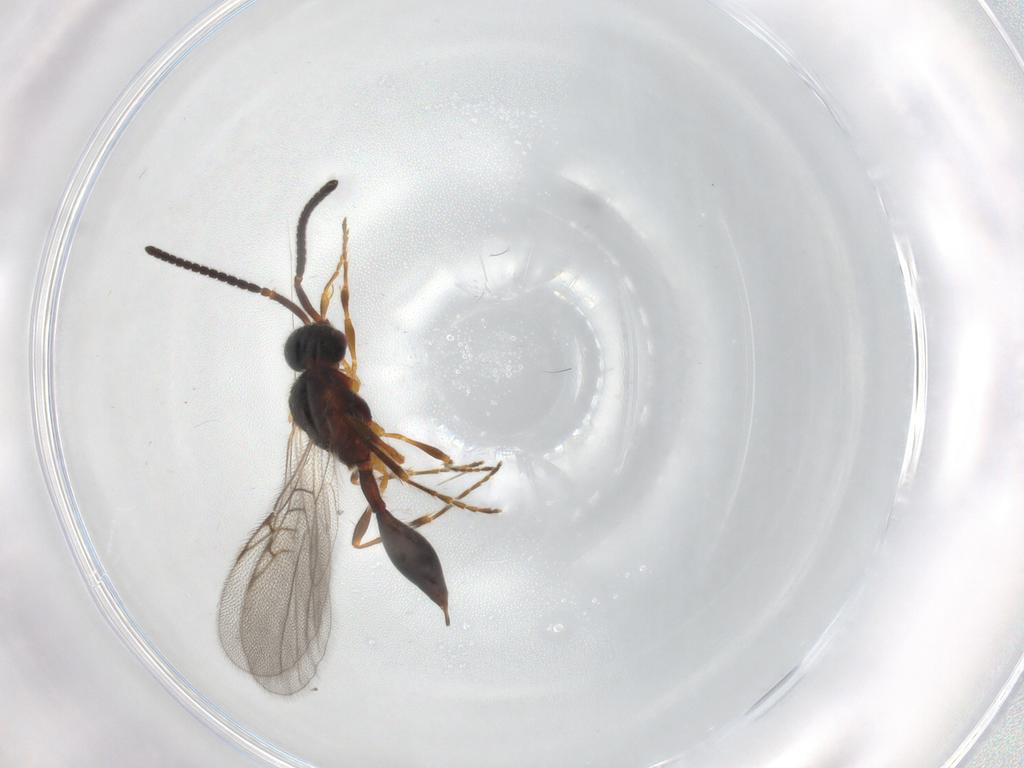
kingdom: Animalia
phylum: Arthropoda
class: Insecta
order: Hymenoptera
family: Diapriidae
